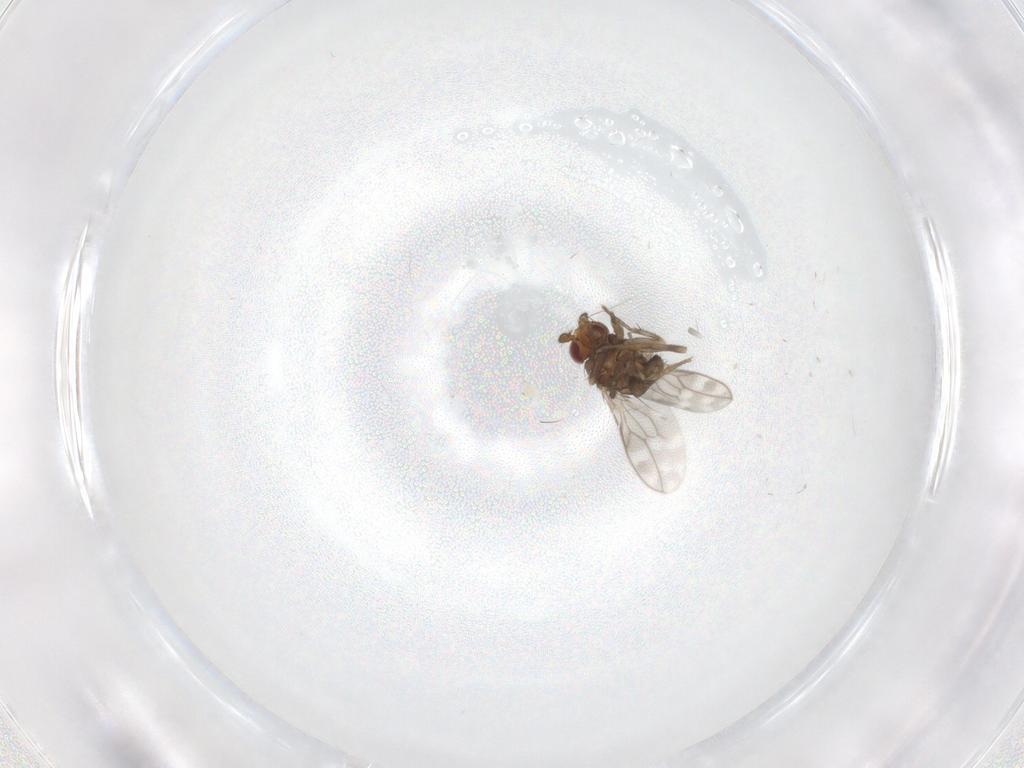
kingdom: Animalia
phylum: Arthropoda
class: Insecta
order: Diptera
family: Sphaeroceridae
